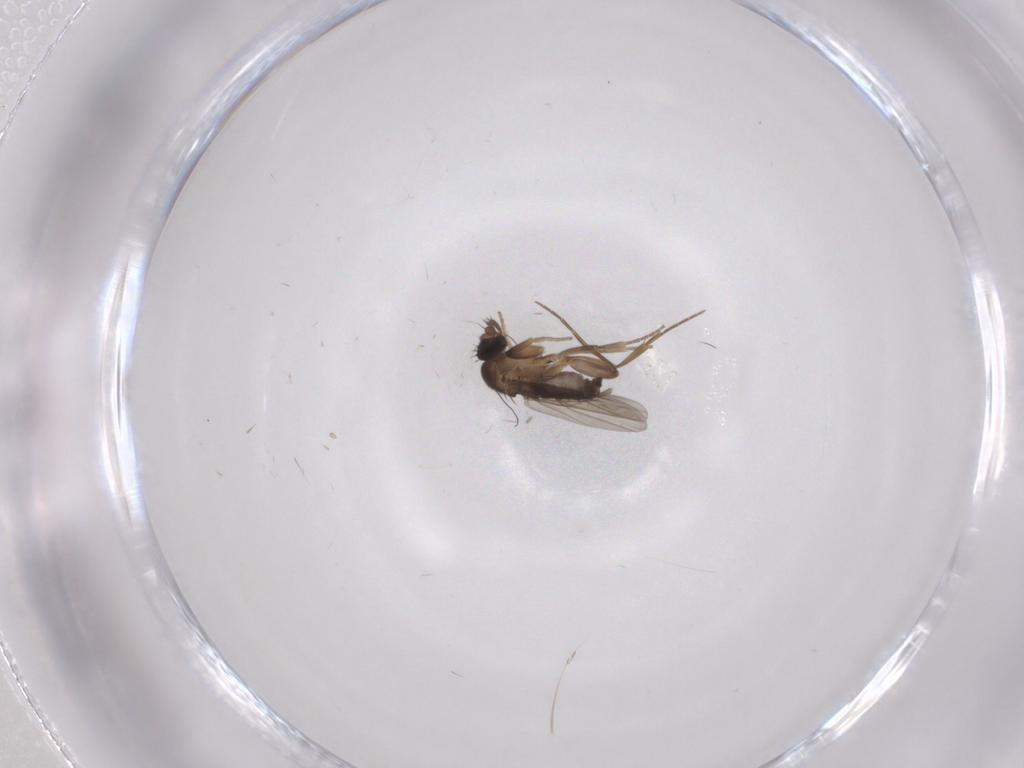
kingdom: Animalia
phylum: Arthropoda
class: Insecta
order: Diptera
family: Phoridae
